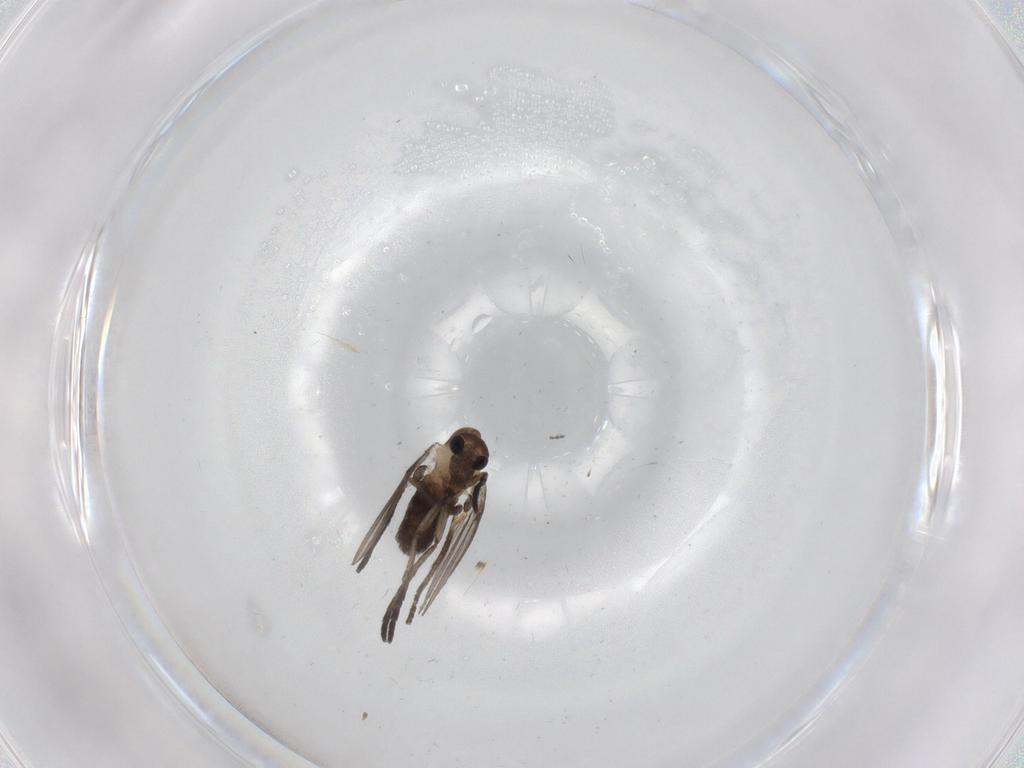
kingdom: Animalia
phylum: Arthropoda
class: Insecta
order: Diptera
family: Psychodidae
